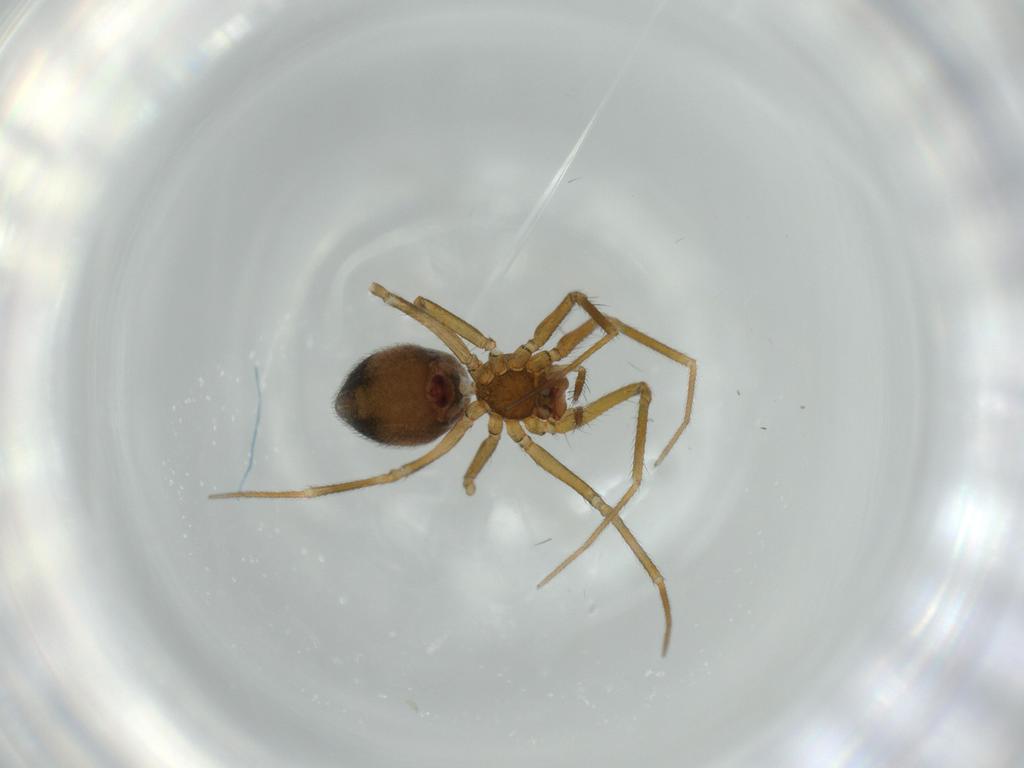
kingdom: Animalia
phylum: Arthropoda
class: Arachnida
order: Araneae
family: Linyphiidae
